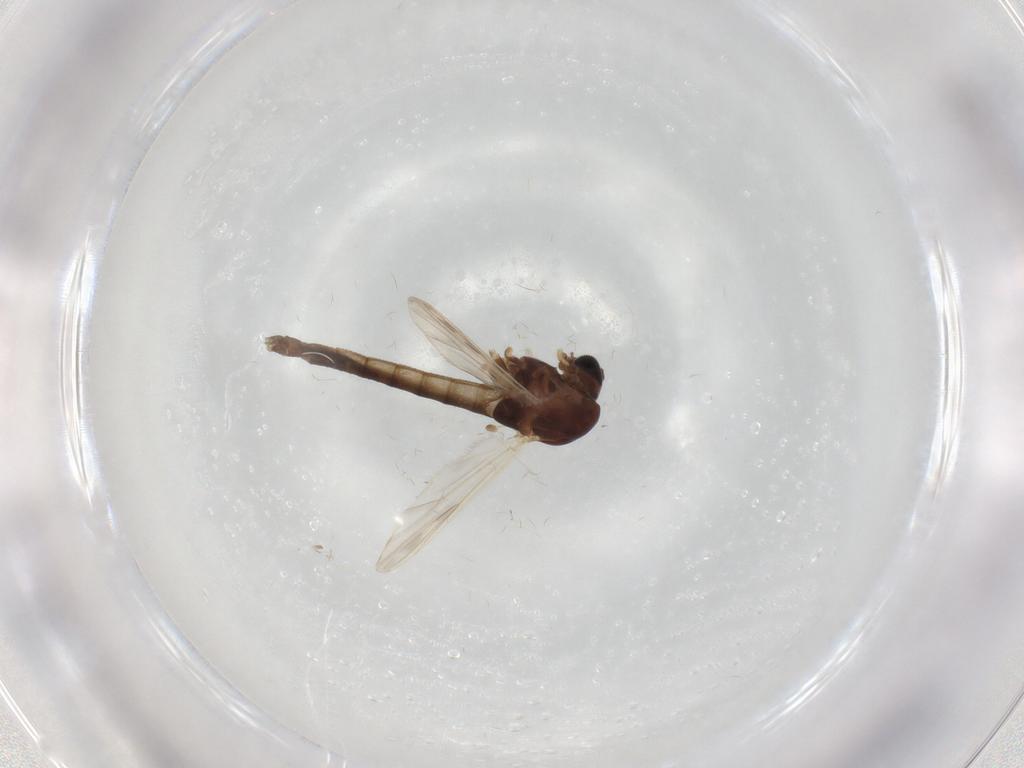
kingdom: Animalia
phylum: Arthropoda
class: Insecta
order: Diptera
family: Chironomidae
